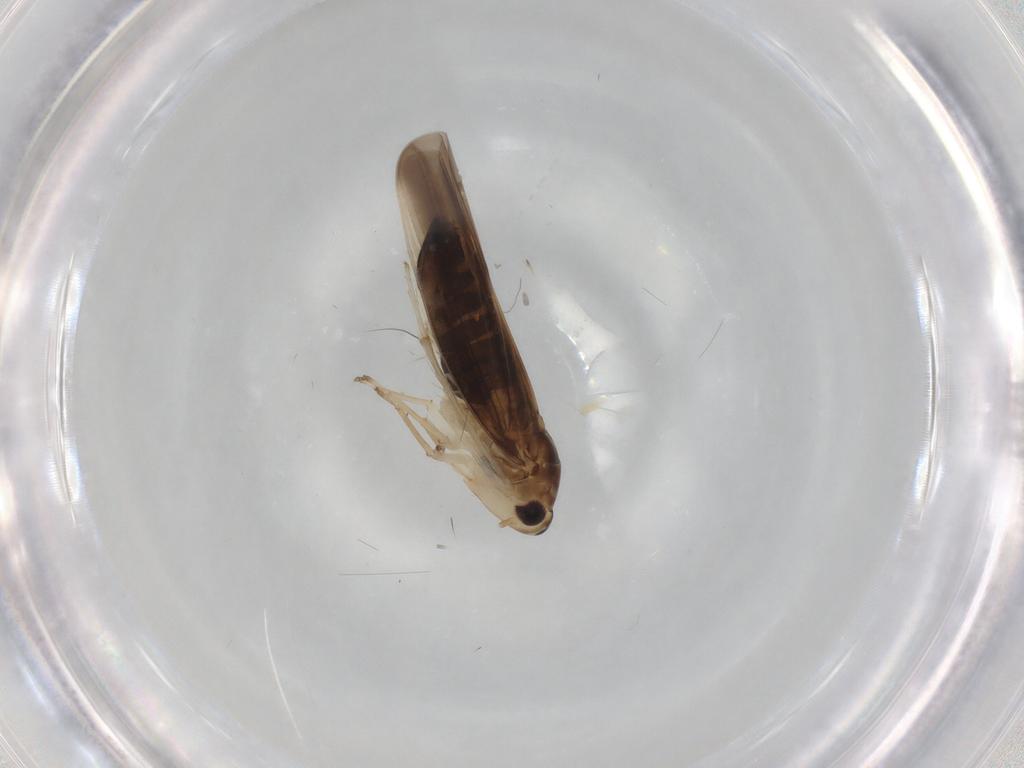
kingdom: Animalia
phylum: Arthropoda
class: Insecta
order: Hemiptera
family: Cicadellidae
